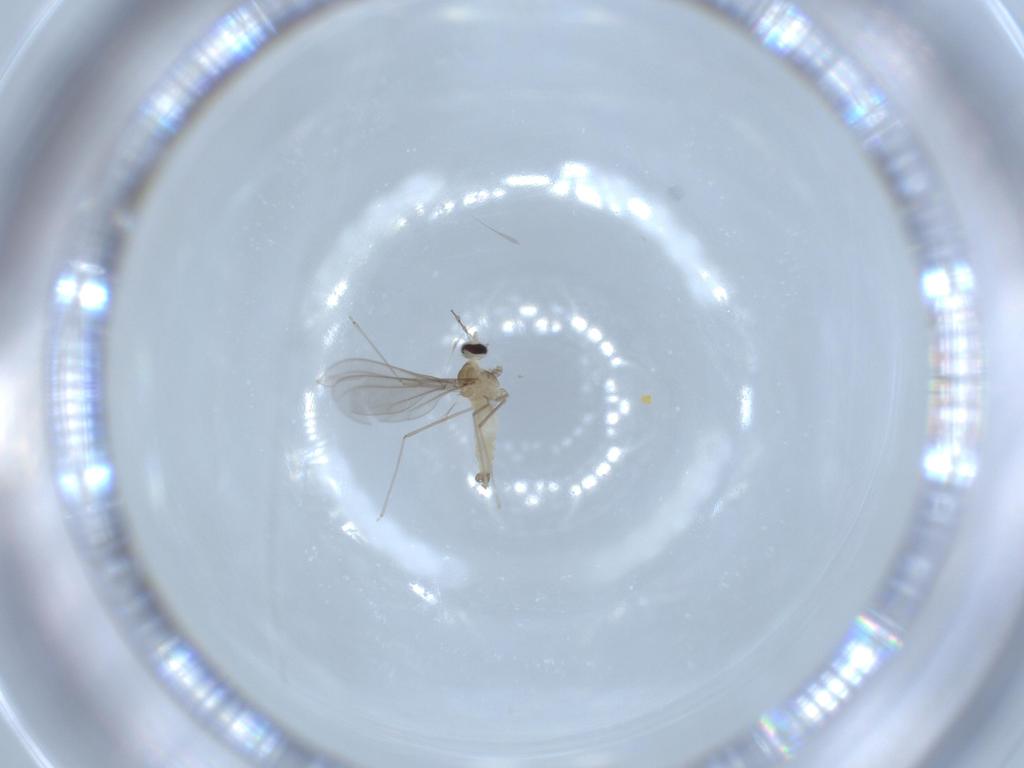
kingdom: Animalia
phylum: Arthropoda
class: Insecta
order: Diptera
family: Cecidomyiidae
